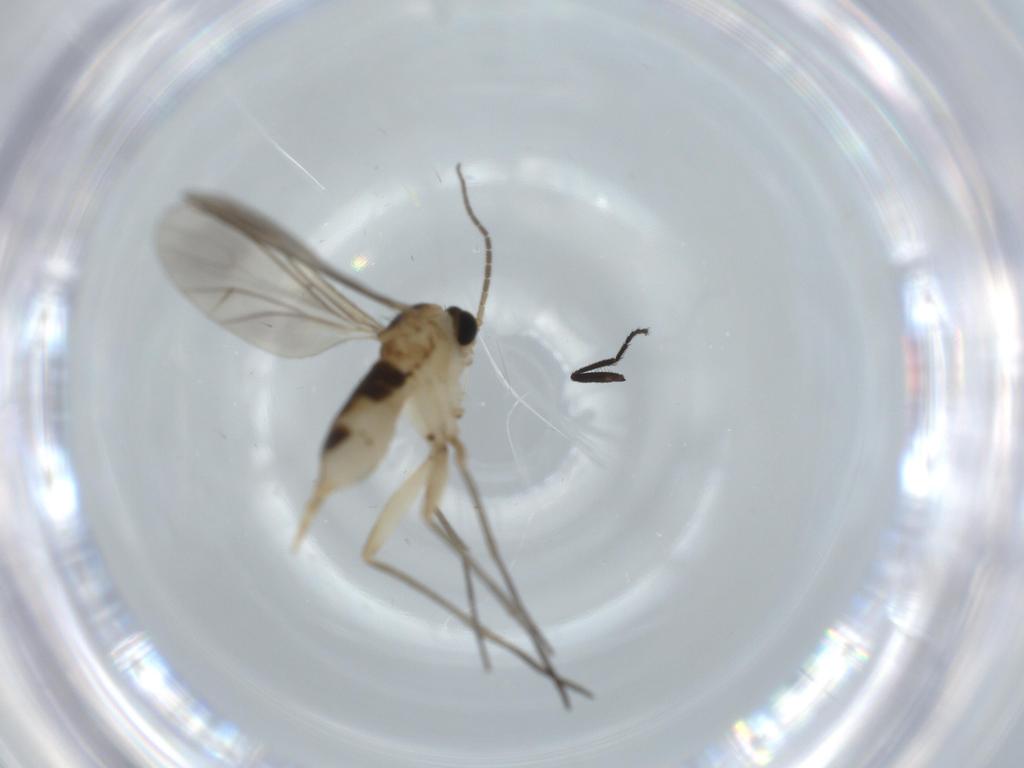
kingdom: Animalia
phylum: Arthropoda
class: Insecta
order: Diptera
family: Sciaridae
